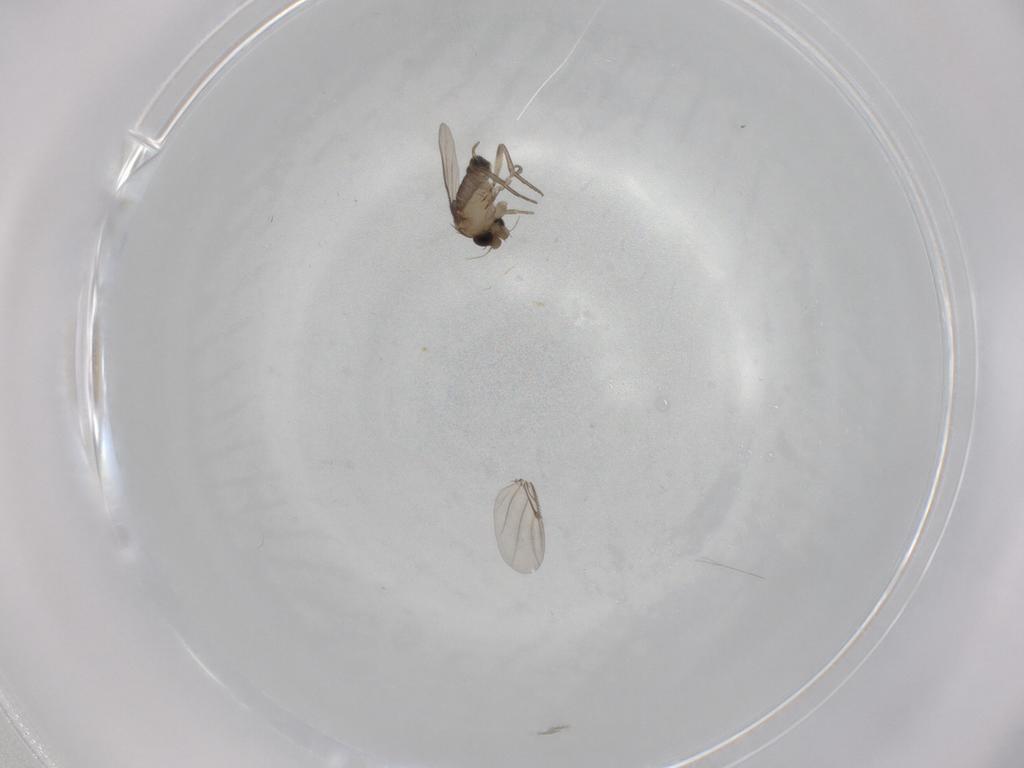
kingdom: Animalia
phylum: Arthropoda
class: Insecta
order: Diptera
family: Phoridae
